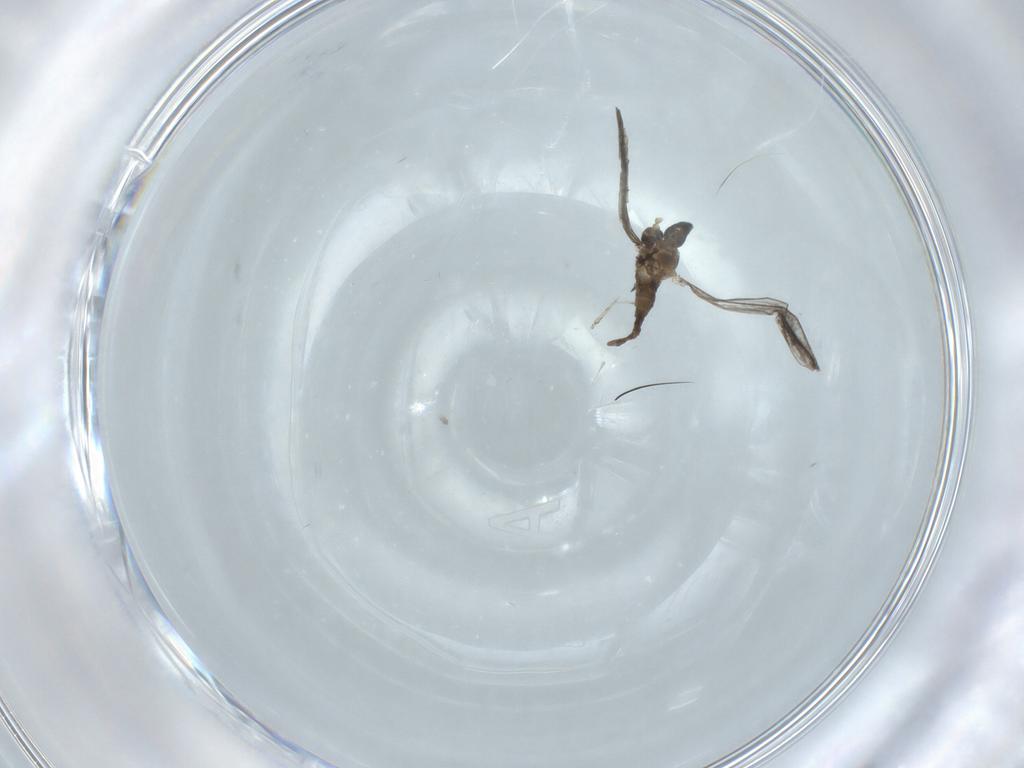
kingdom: Animalia
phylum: Arthropoda
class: Insecta
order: Diptera
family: Cecidomyiidae
